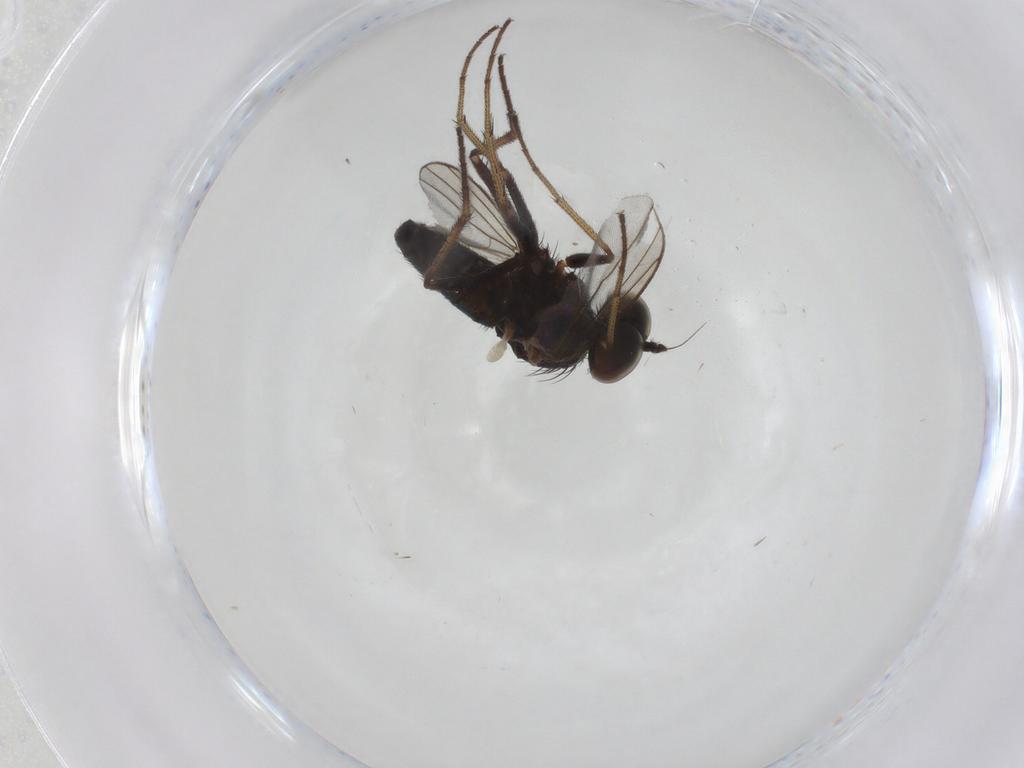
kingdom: Animalia
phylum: Arthropoda
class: Insecta
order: Diptera
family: Dolichopodidae
